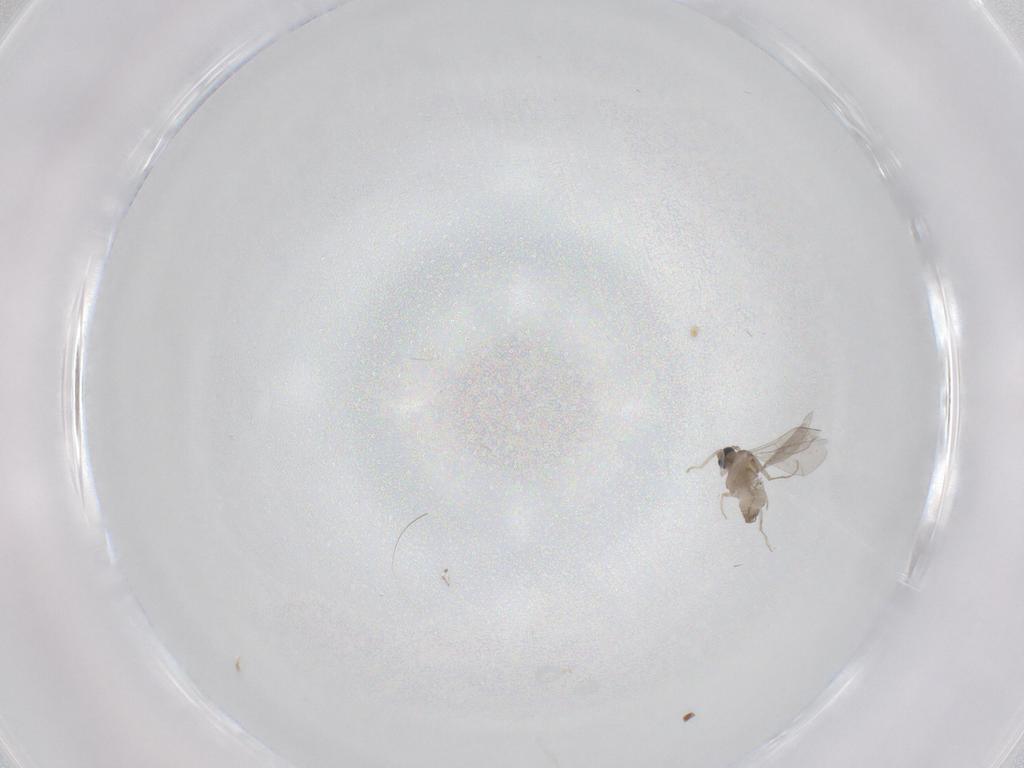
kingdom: Animalia
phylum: Arthropoda
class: Insecta
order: Diptera
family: Cecidomyiidae
